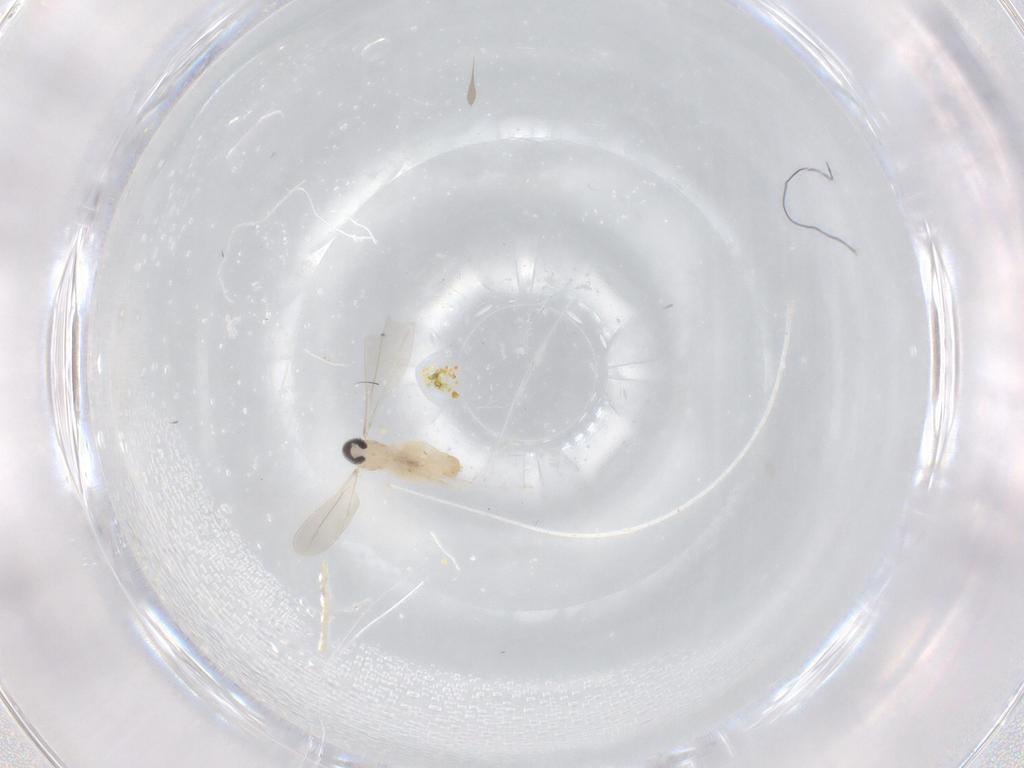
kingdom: Animalia
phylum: Arthropoda
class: Insecta
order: Diptera
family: Cecidomyiidae
